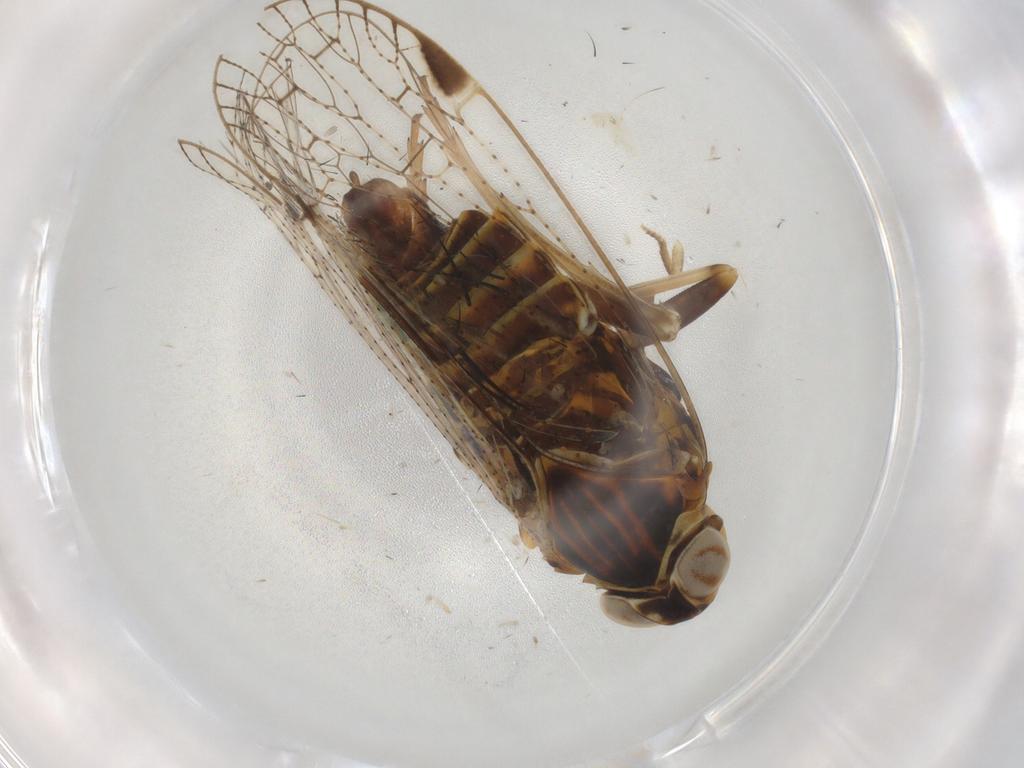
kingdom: Animalia
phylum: Arthropoda
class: Insecta
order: Hemiptera
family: Cixiidae
